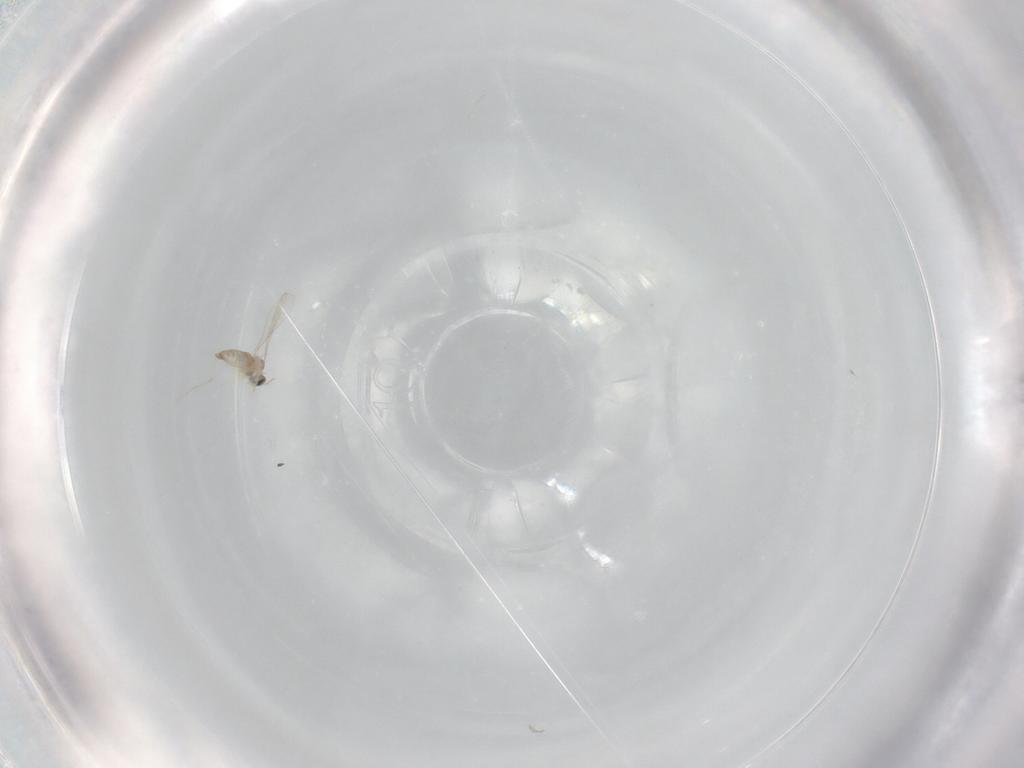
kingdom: Animalia
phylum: Arthropoda
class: Insecta
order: Diptera
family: Cecidomyiidae
